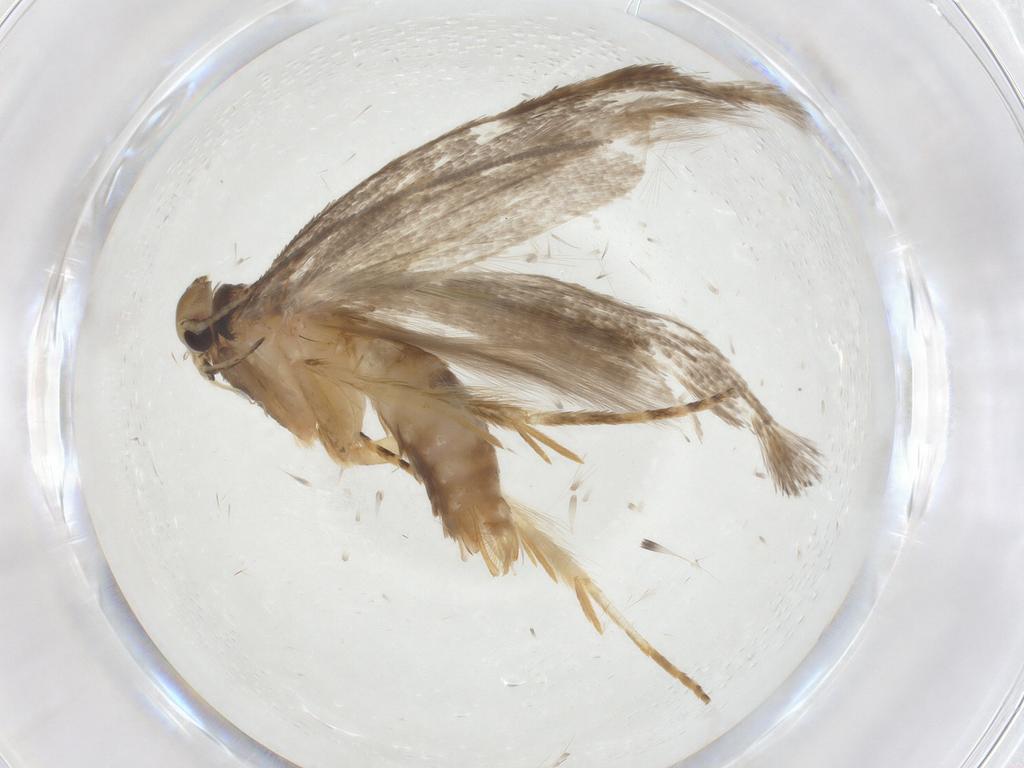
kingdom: Animalia
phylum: Arthropoda
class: Insecta
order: Lepidoptera
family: Gelechiidae
